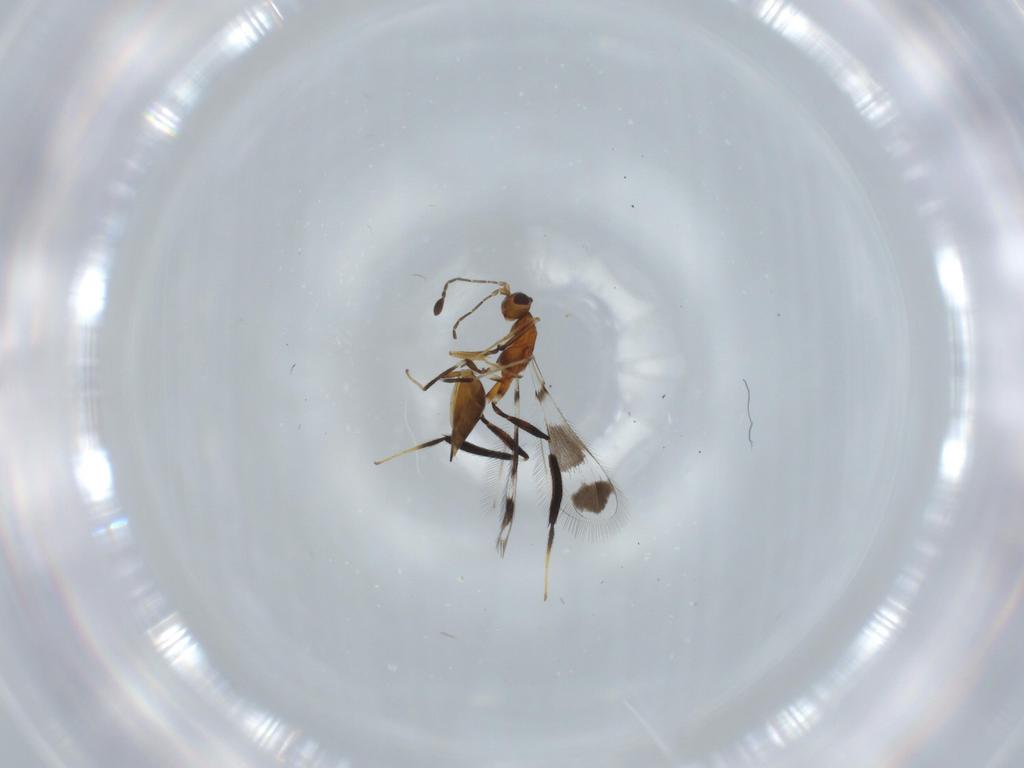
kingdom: Animalia
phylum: Arthropoda
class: Insecta
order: Hymenoptera
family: Mymaridae
